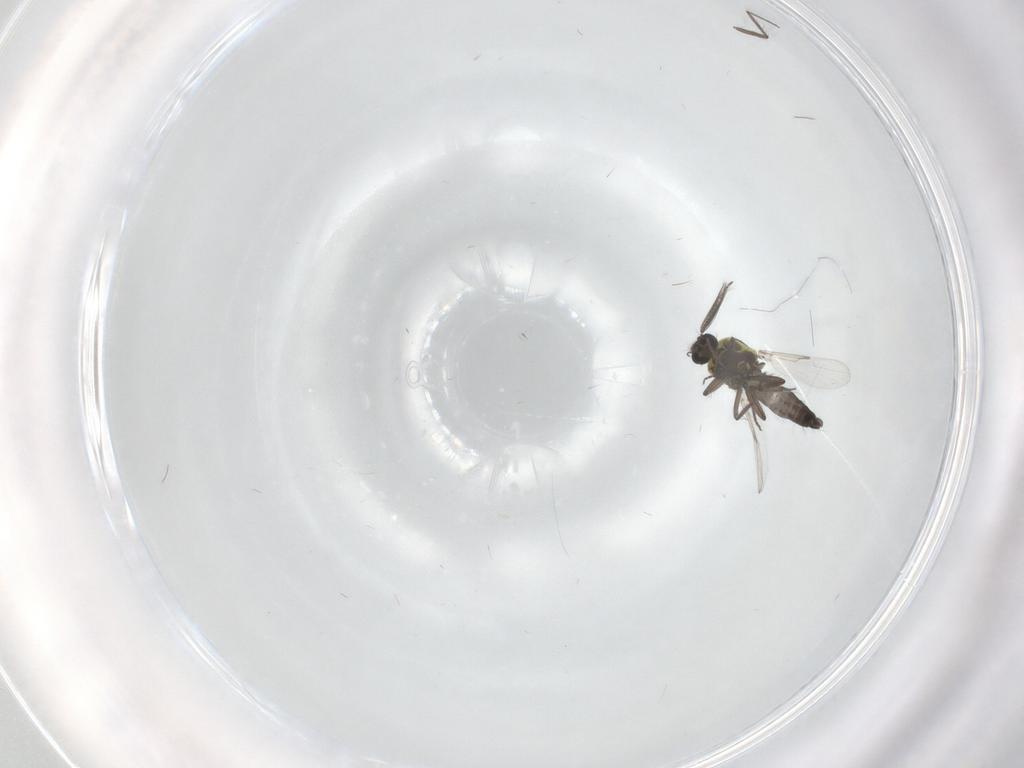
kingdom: Animalia
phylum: Arthropoda
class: Insecta
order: Diptera
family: Ceratopogonidae
